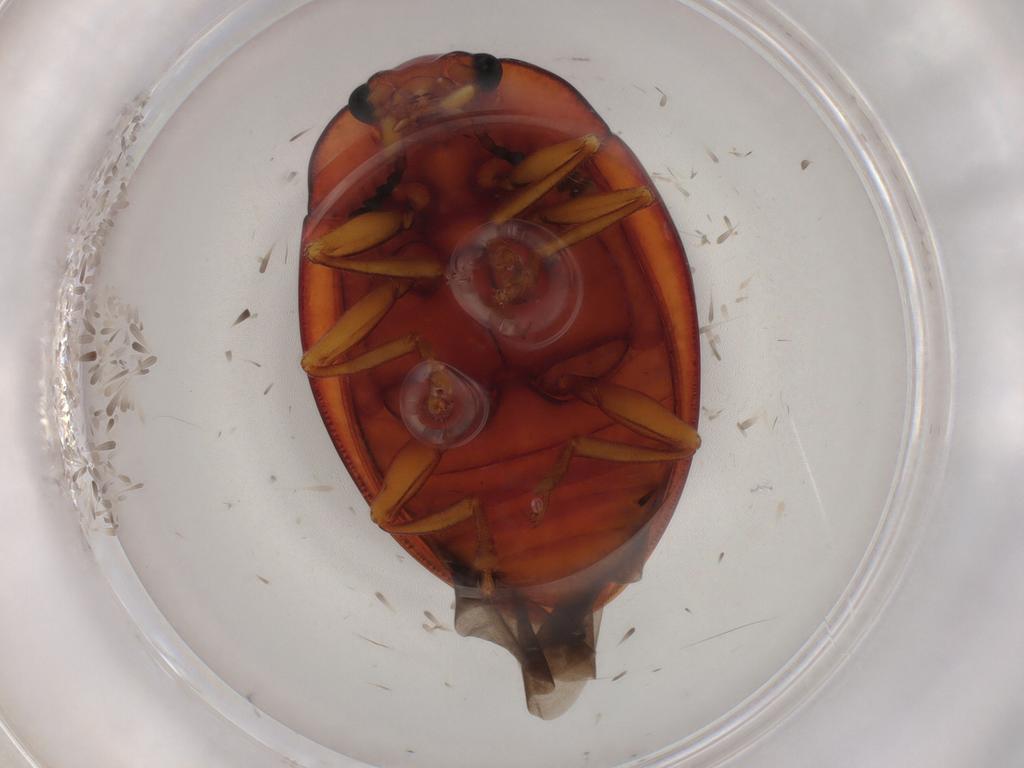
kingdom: Animalia
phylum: Arthropoda
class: Insecta
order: Coleoptera
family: Erotylidae
